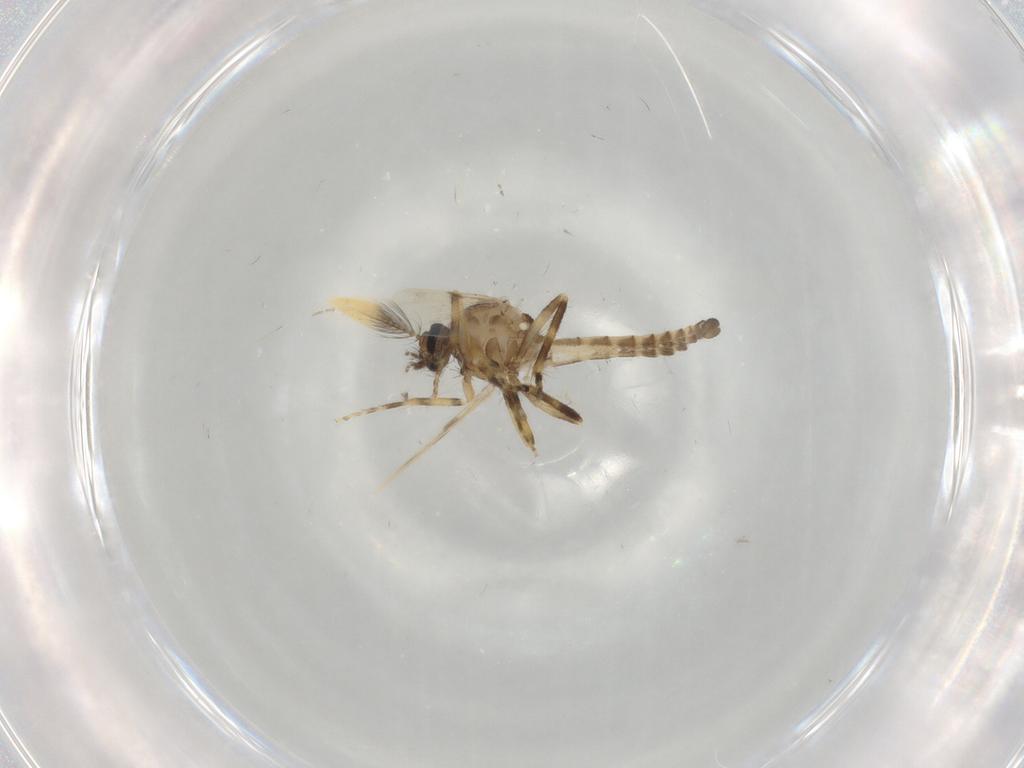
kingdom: Animalia
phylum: Arthropoda
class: Insecta
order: Diptera
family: Ceratopogonidae
